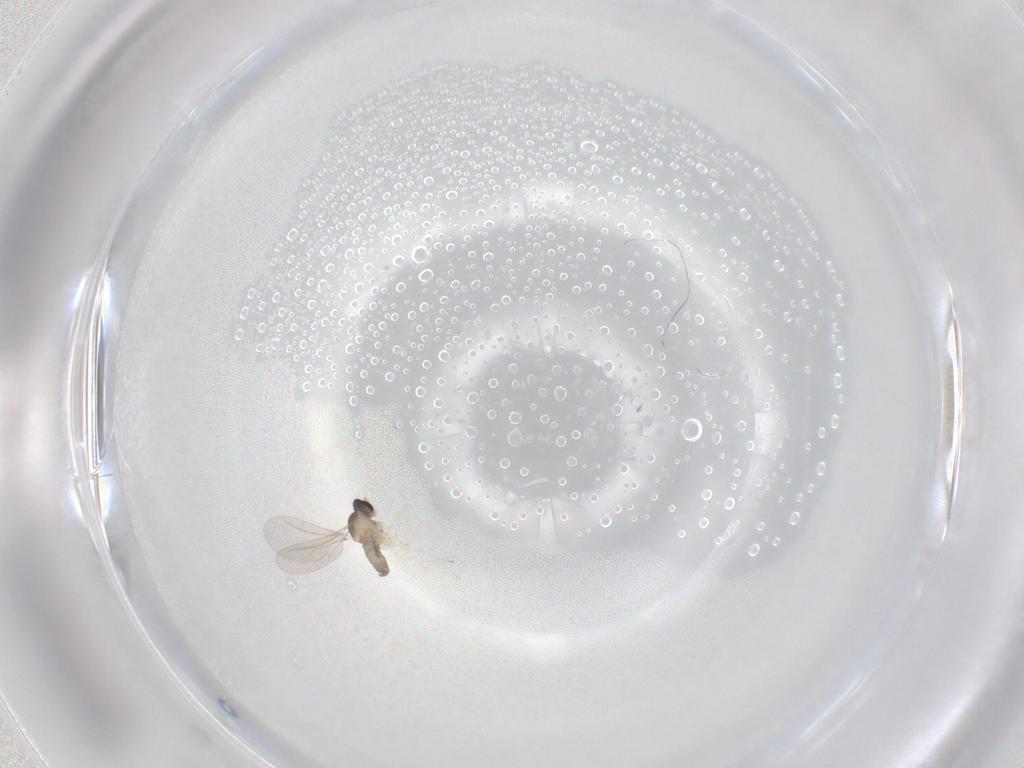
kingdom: Animalia
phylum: Arthropoda
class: Insecta
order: Diptera
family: Cecidomyiidae
